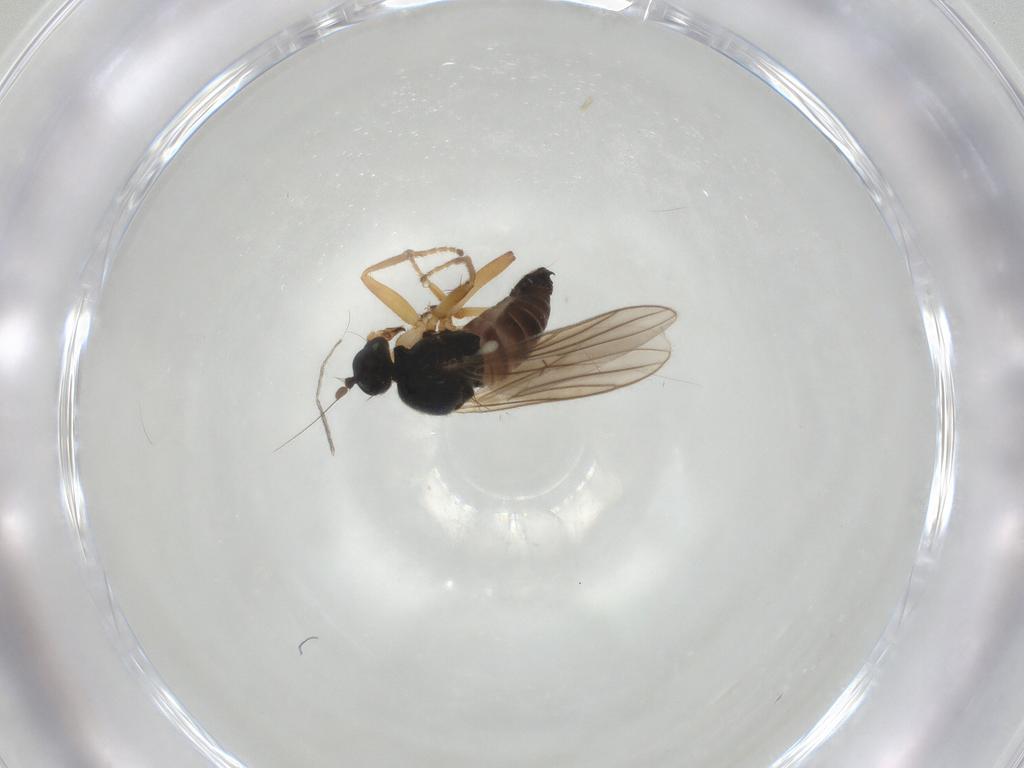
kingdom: Animalia
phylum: Arthropoda
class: Insecta
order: Diptera
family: Hybotidae
